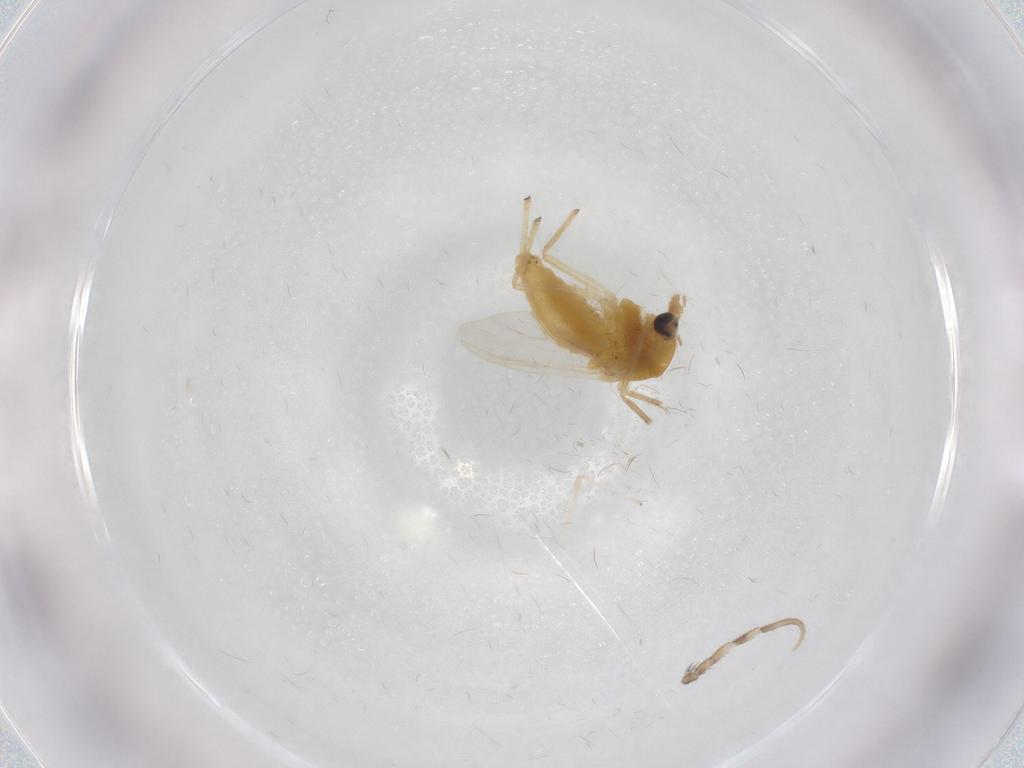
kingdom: Animalia
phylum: Arthropoda
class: Insecta
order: Diptera
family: Chironomidae
